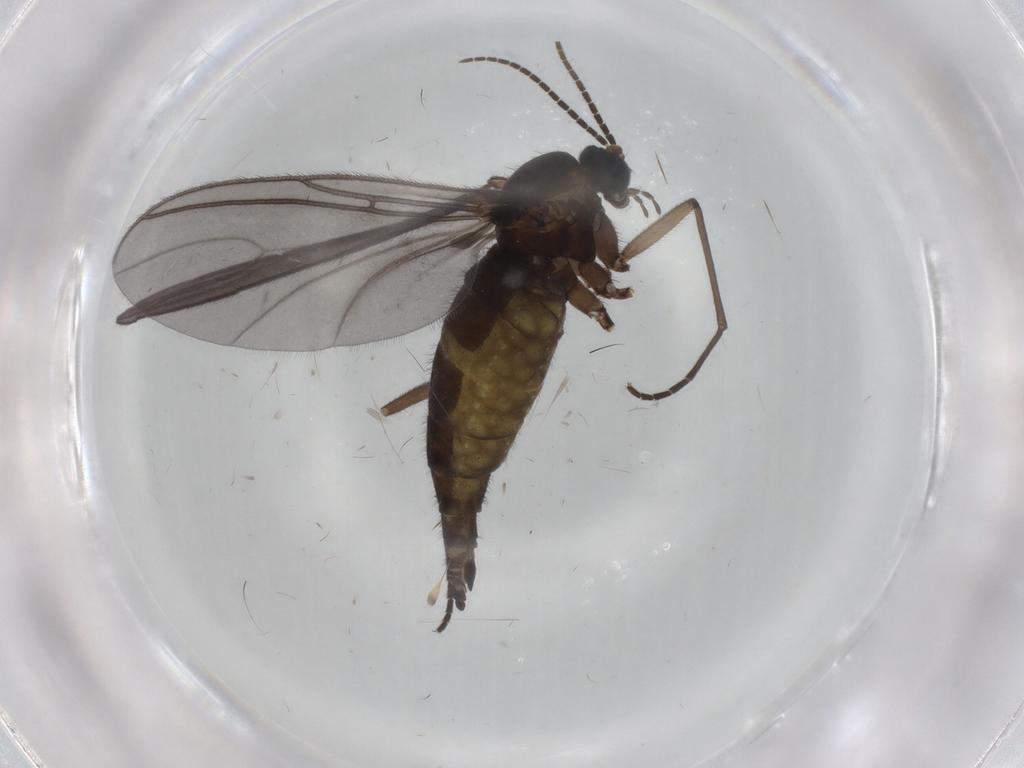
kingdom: Animalia
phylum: Arthropoda
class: Insecta
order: Diptera
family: Sciaridae
